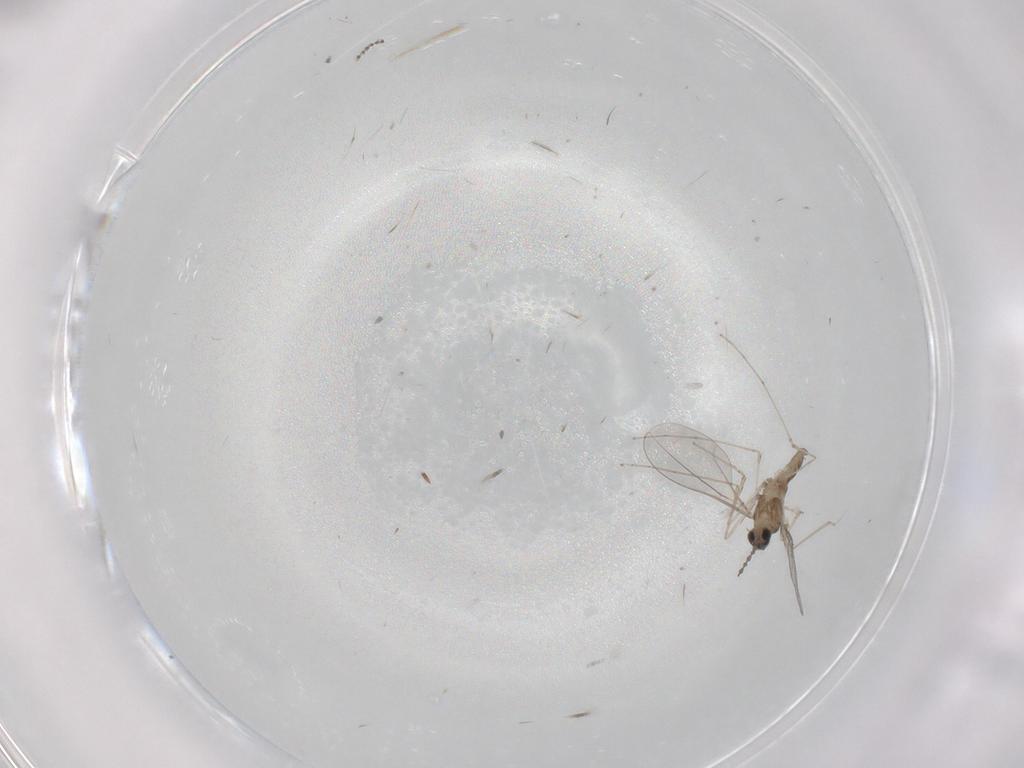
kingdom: Animalia
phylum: Arthropoda
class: Insecta
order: Diptera
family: Cecidomyiidae
